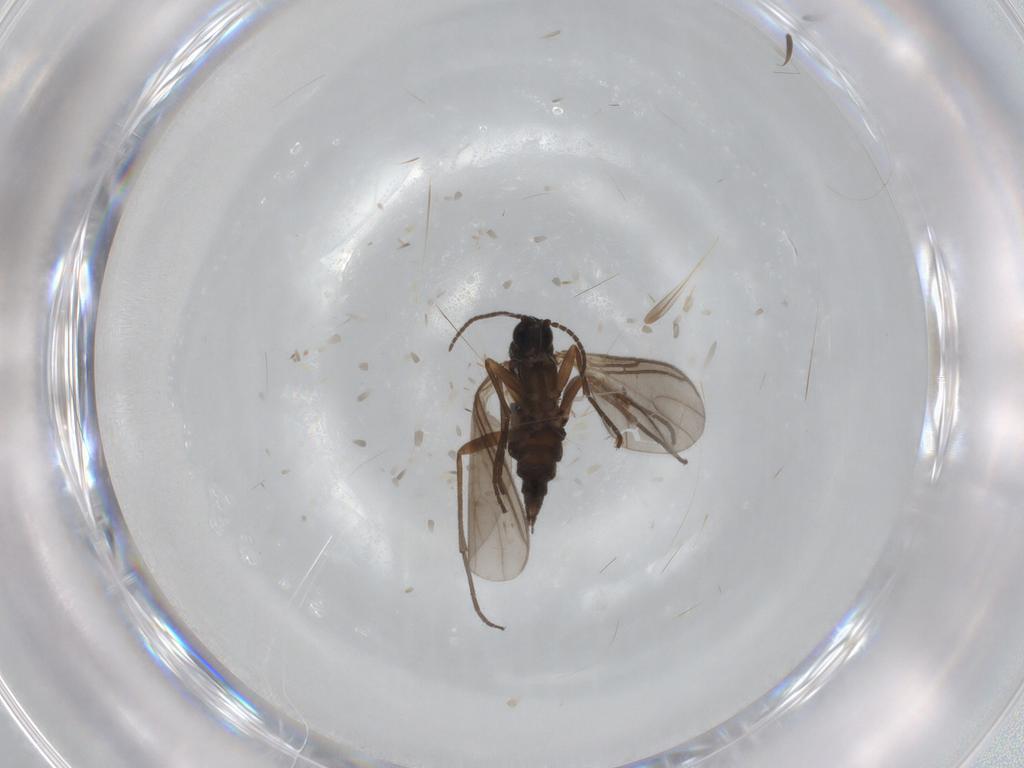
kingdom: Animalia
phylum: Arthropoda
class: Insecta
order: Diptera
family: Sciaridae
